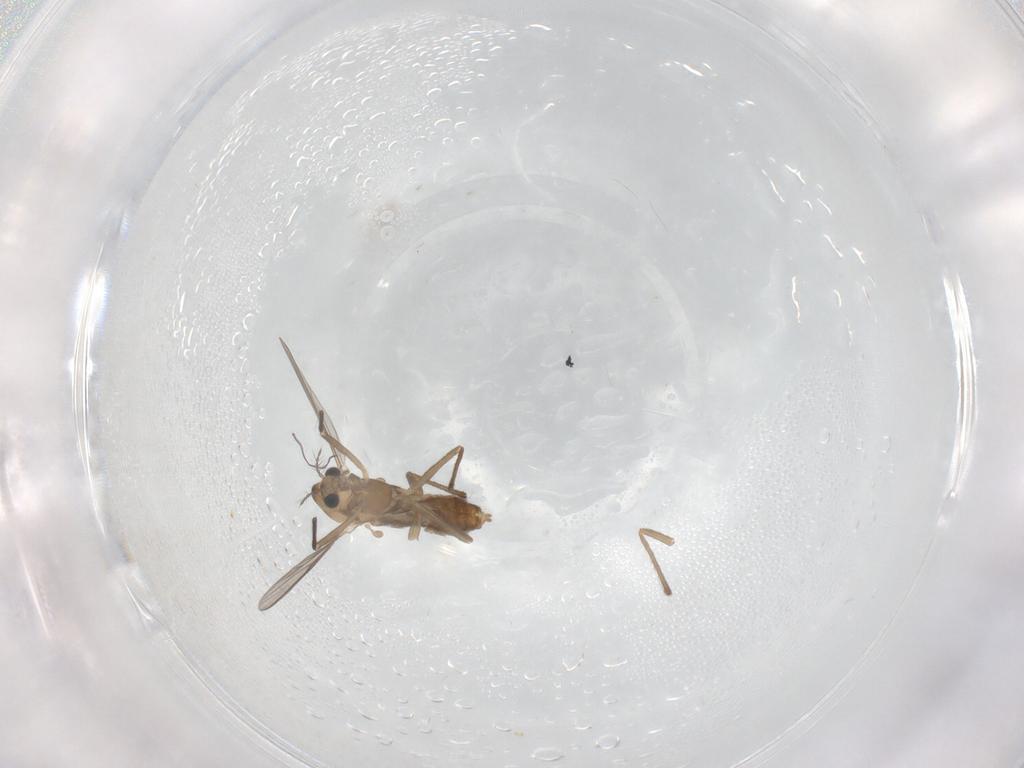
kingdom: Animalia
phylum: Arthropoda
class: Insecta
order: Diptera
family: Chironomidae
